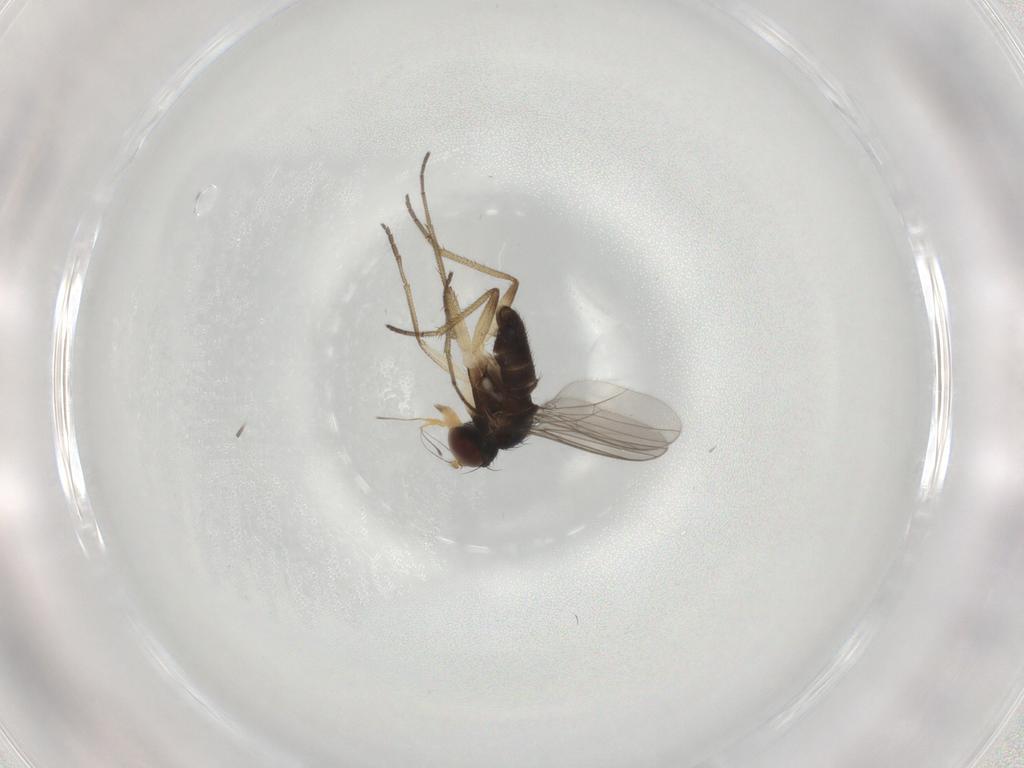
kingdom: Animalia
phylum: Arthropoda
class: Insecta
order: Diptera
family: Dolichopodidae
